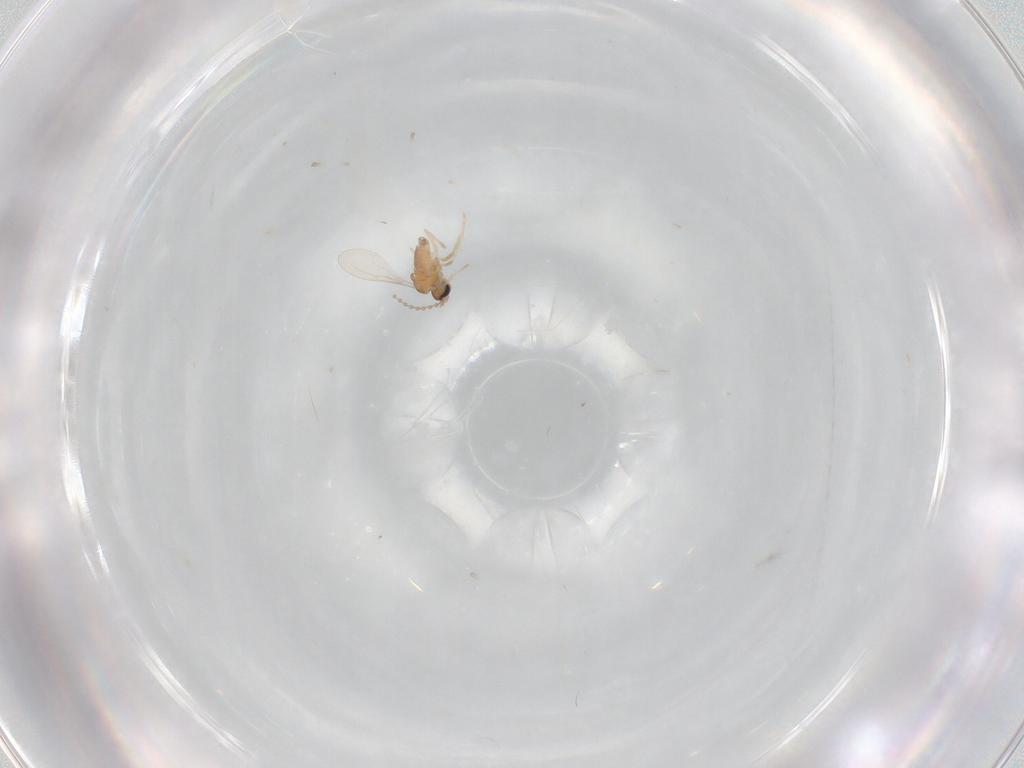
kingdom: Animalia
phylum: Arthropoda
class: Insecta
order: Diptera
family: Cecidomyiidae
